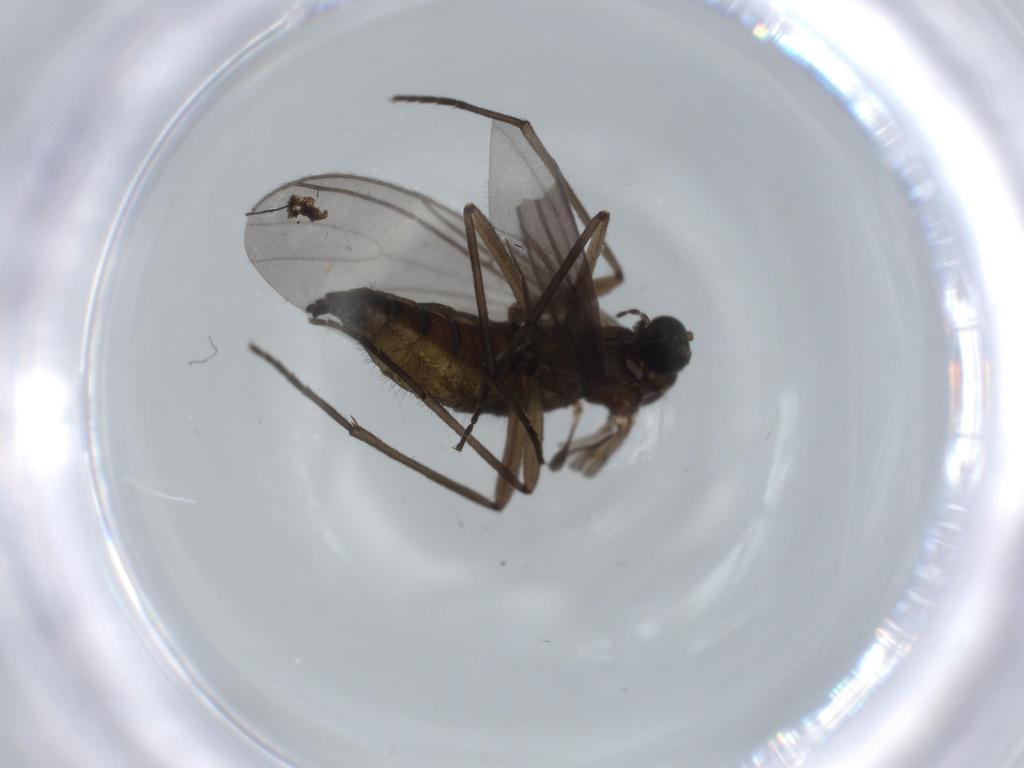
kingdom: Animalia
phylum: Arthropoda
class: Insecta
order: Diptera
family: Sciaridae
